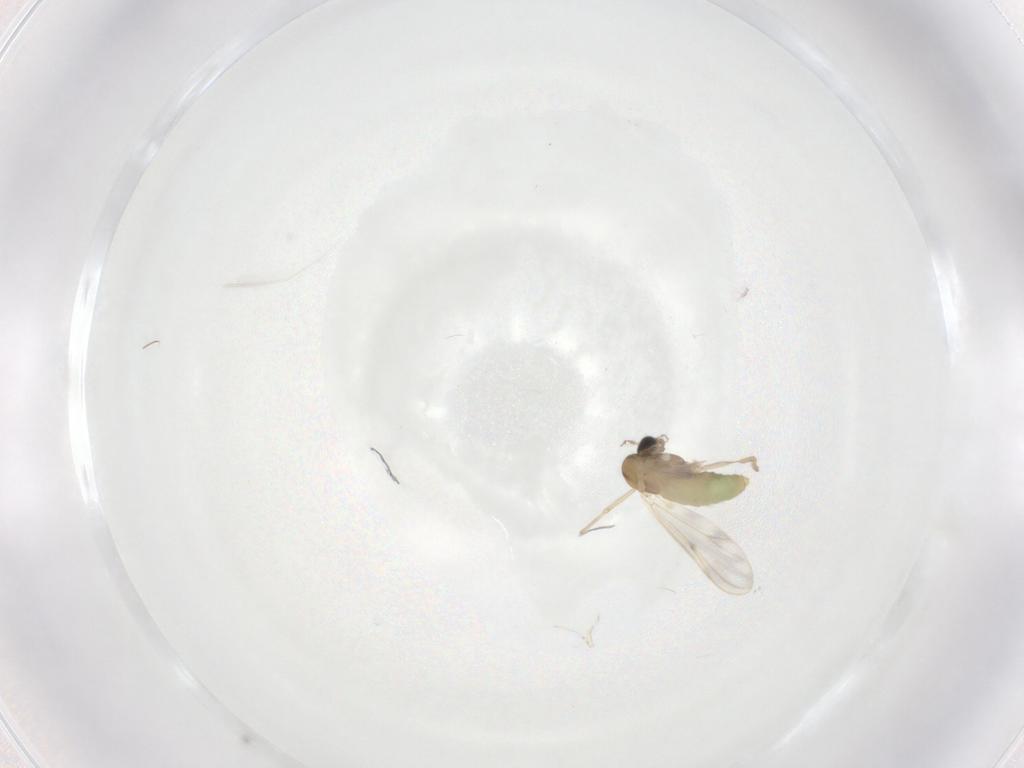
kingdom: Animalia
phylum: Arthropoda
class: Insecta
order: Diptera
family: Chironomidae
